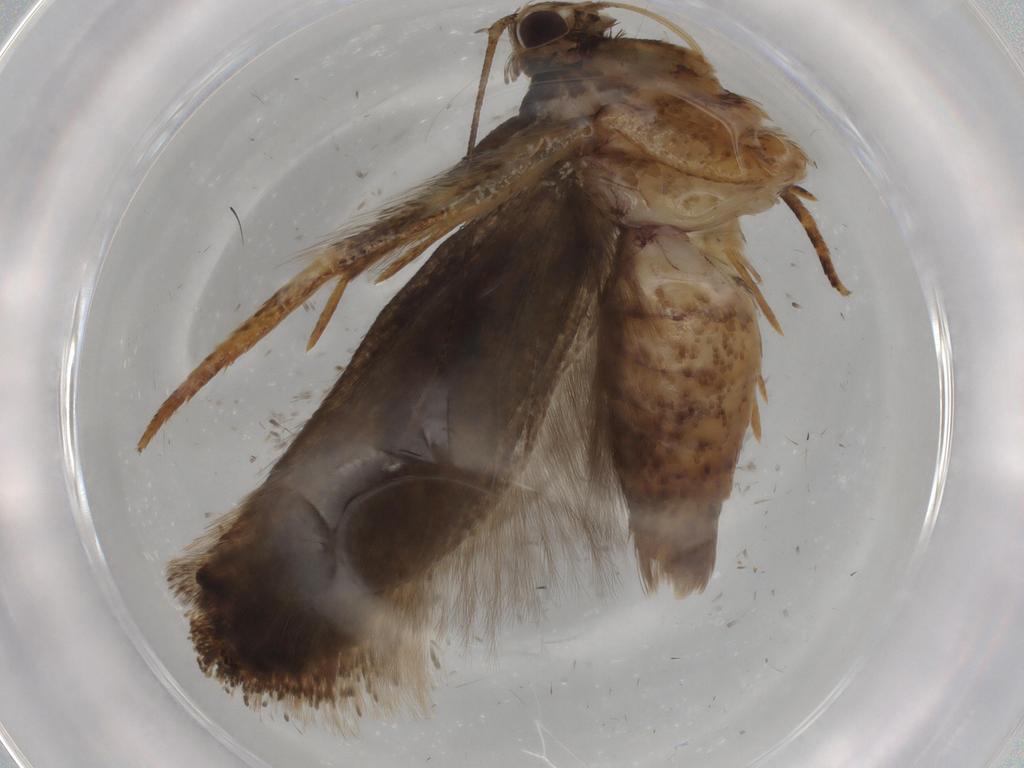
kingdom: Animalia
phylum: Arthropoda
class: Insecta
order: Lepidoptera
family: Gelechiidae
